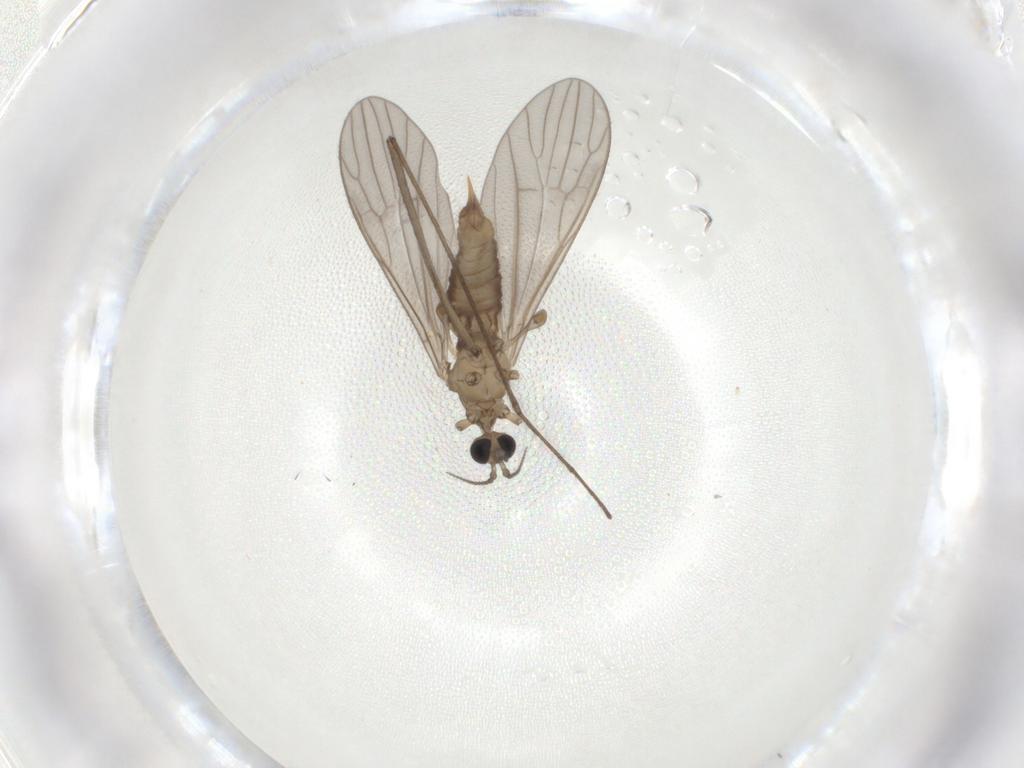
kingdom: Animalia
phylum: Arthropoda
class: Insecta
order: Diptera
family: Limoniidae
